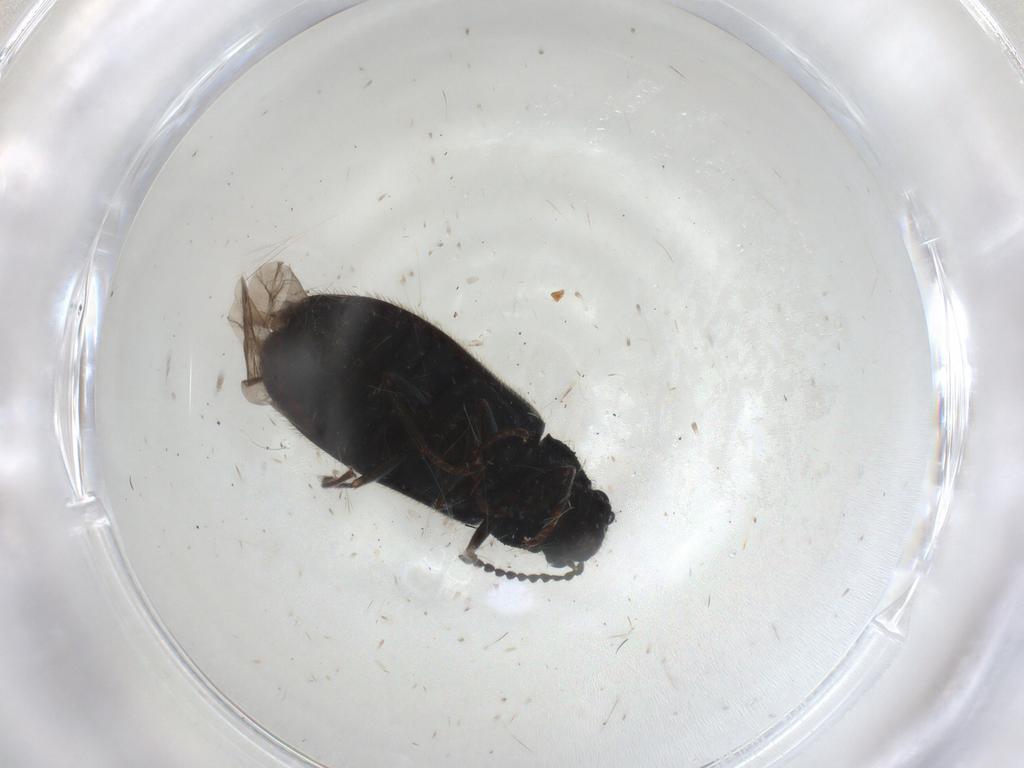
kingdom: Animalia
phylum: Arthropoda
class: Insecta
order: Coleoptera
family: Melyridae
